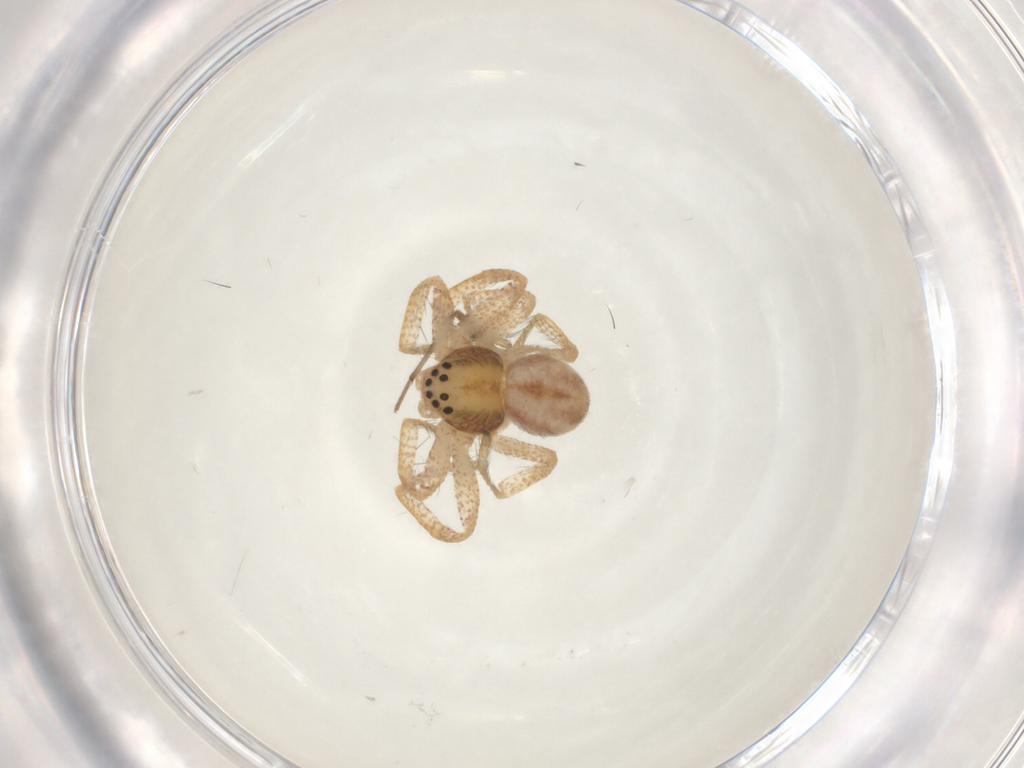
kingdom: Animalia
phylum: Arthropoda
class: Arachnida
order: Araneae
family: Philodromidae
